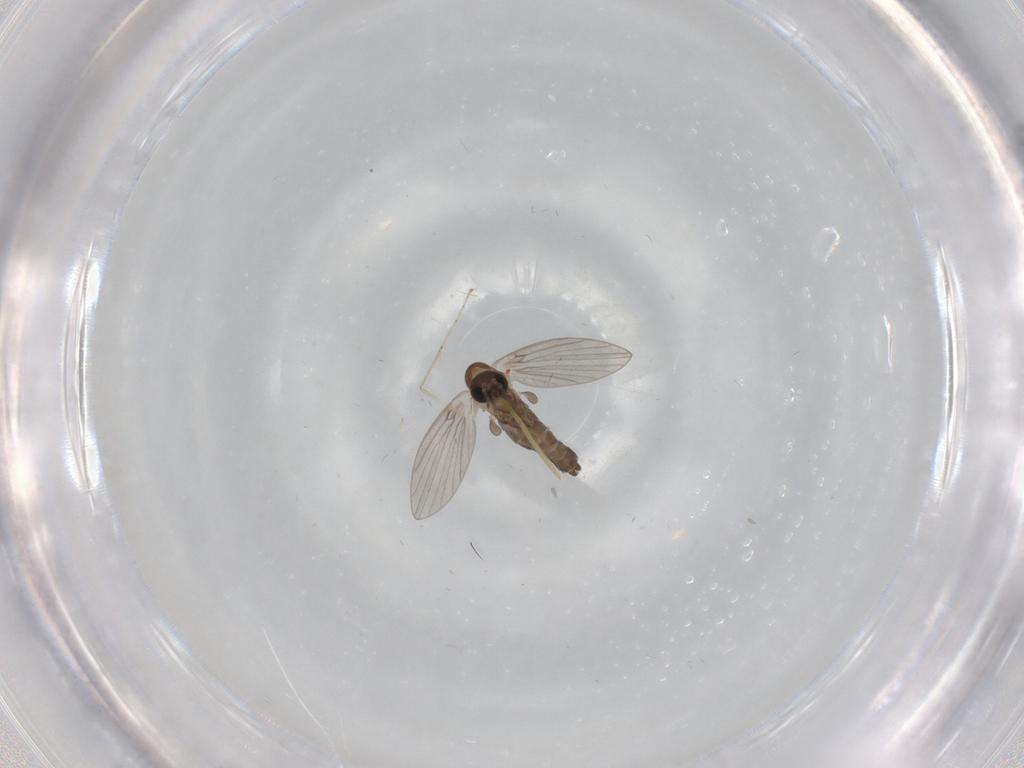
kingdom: Animalia
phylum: Arthropoda
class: Insecta
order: Diptera
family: Cecidomyiidae
